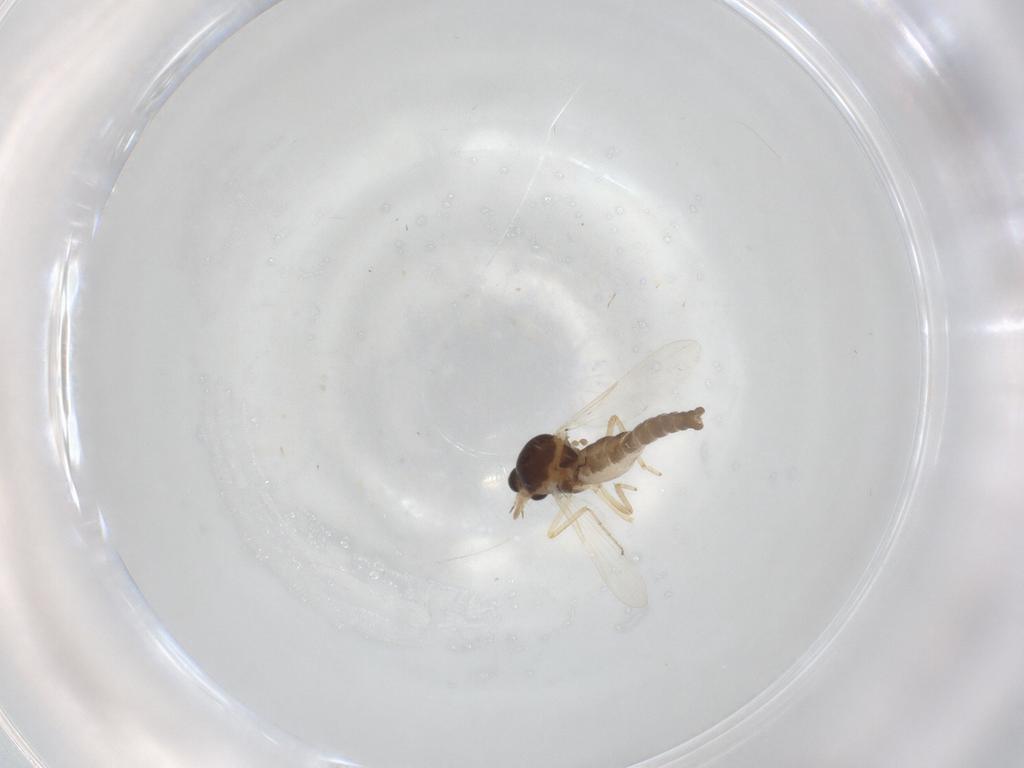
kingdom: Animalia
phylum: Arthropoda
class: Insecta
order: Diptera
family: Ceratopogonidae
